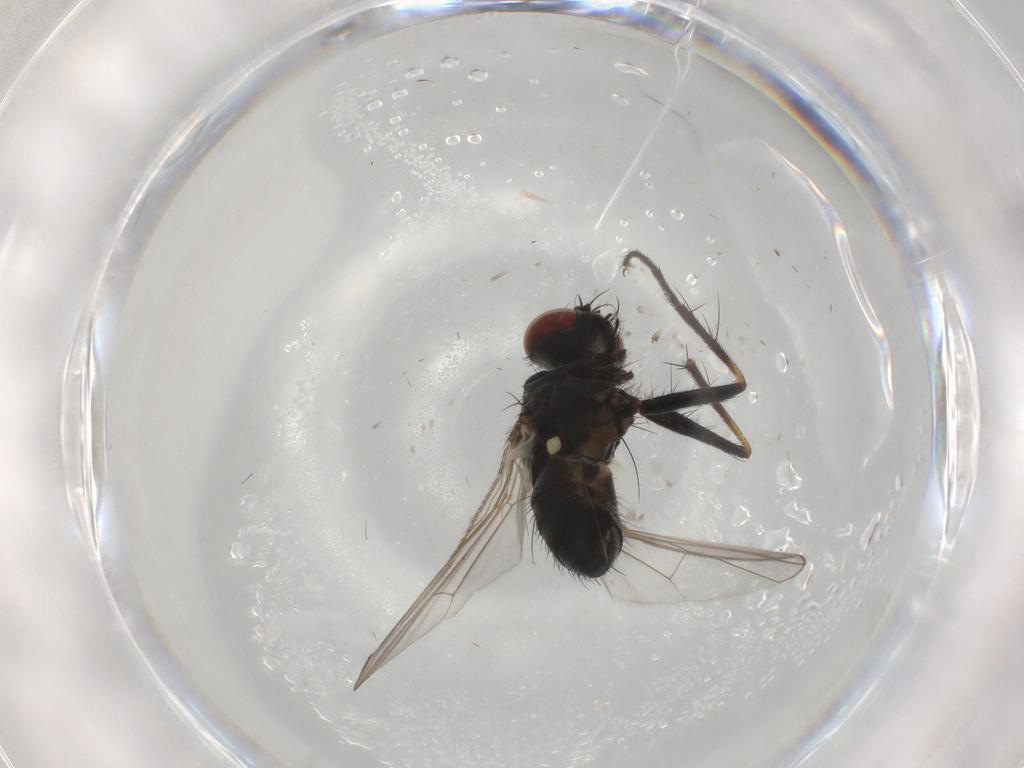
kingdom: Animalia
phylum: Arthropoda
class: Insecta
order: Diptera
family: Muscidae
